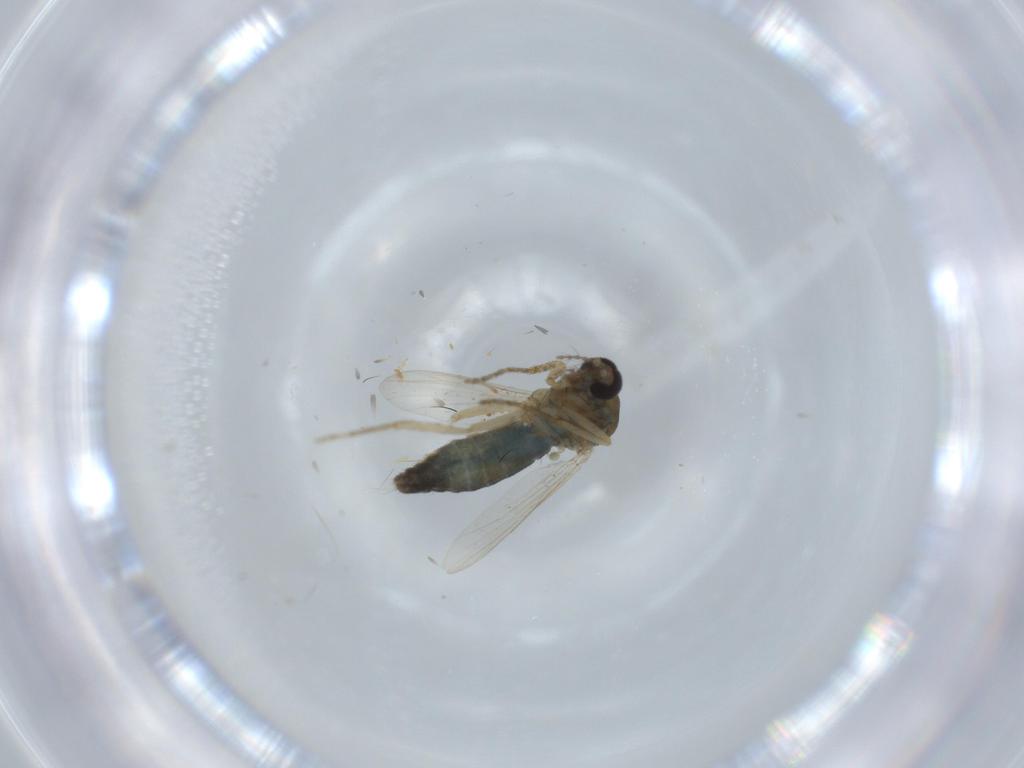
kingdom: Animalia
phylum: Arthropoda
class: Insecta
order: Diptera
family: Ceratopogonidae
